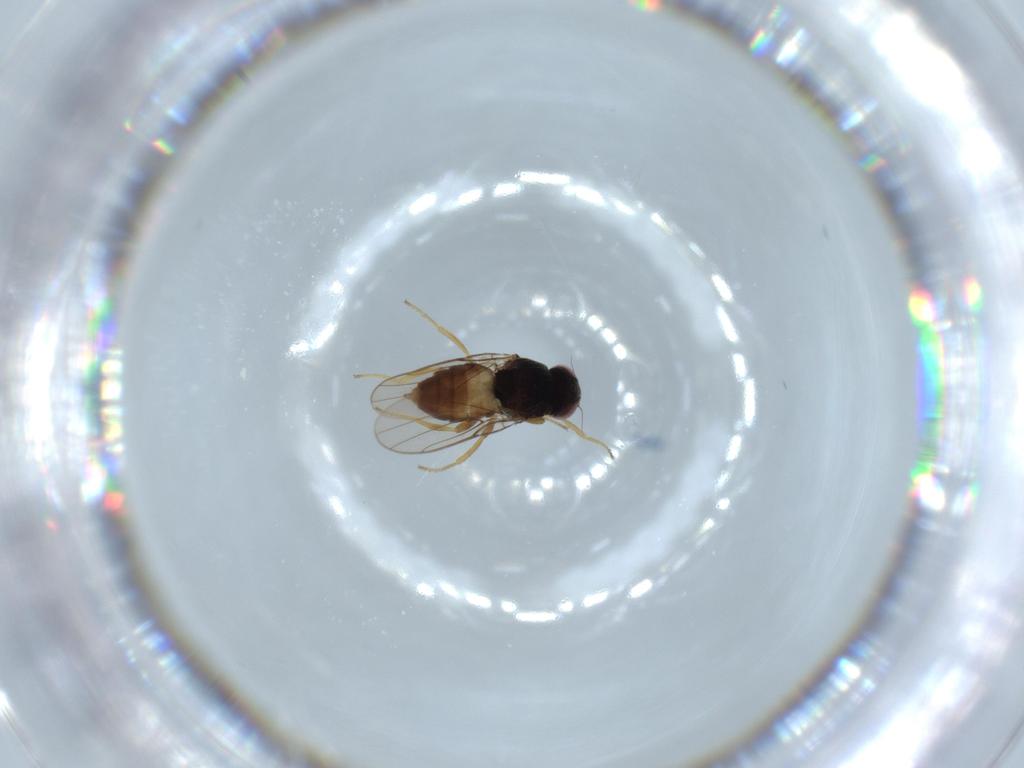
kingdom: Animalia
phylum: Arthropoda
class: Insecta
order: Diptera
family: Chloropidae
